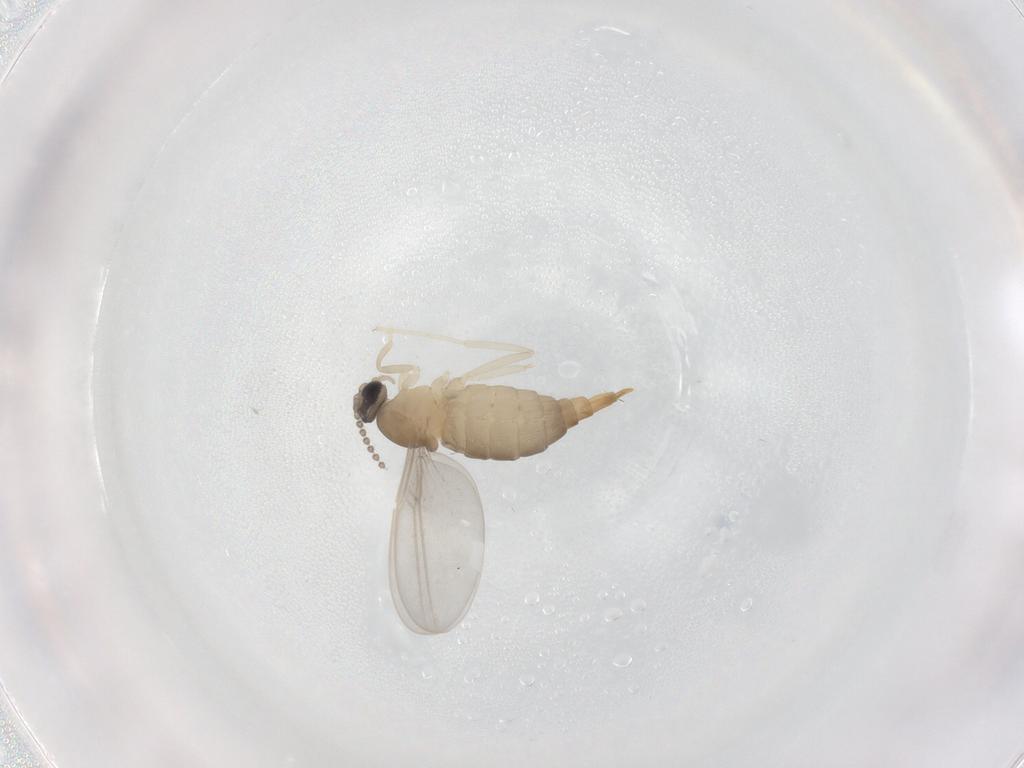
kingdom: Animalia
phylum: Arthropoda
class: Insecta
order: Diptera
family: Cecidomyiidae
